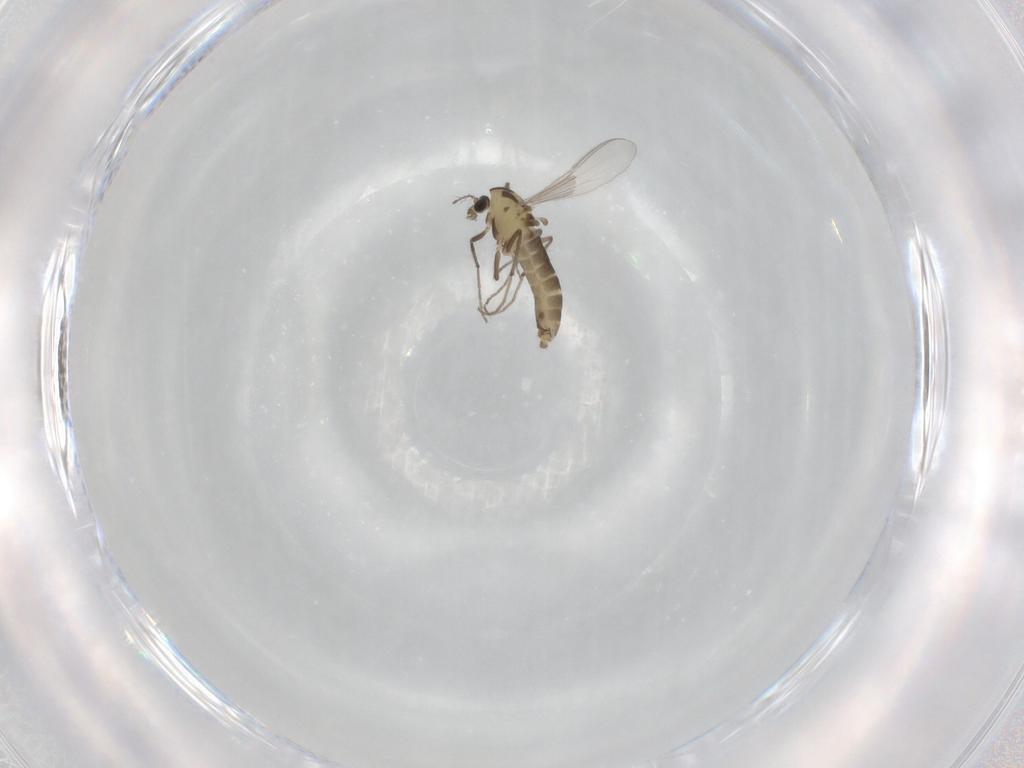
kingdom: Animalia
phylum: Arthropoda
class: Insecta
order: Diptera
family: Chironomidae
